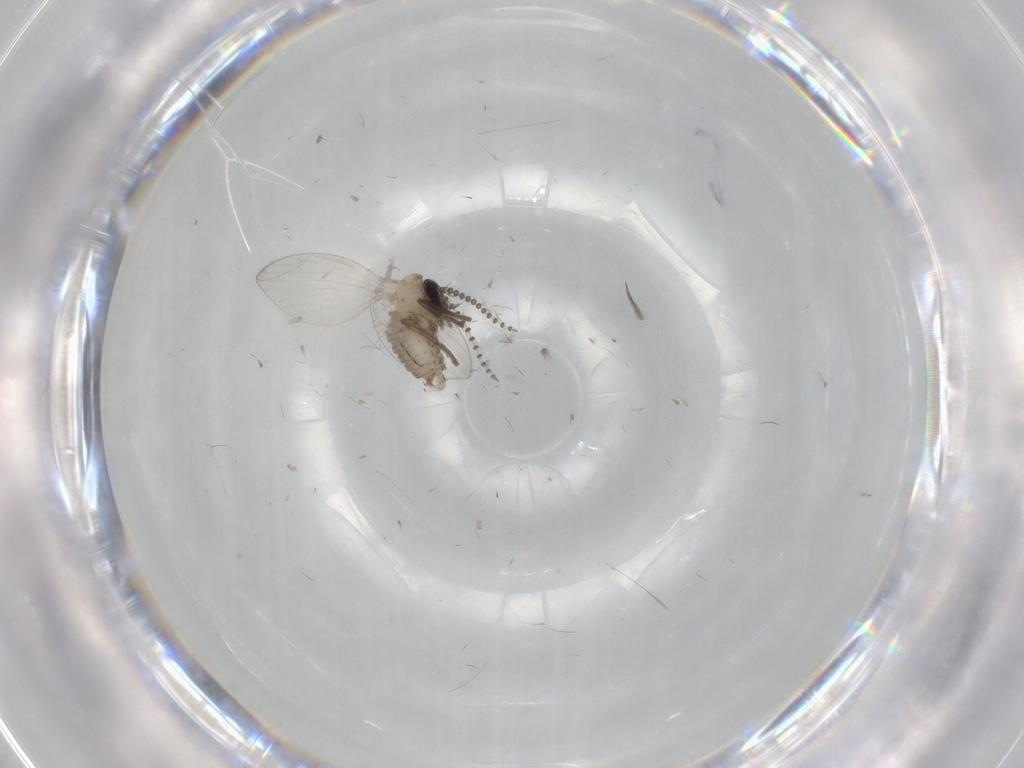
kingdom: Animalia
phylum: Arthropoda
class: Insecta
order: Diptera
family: Psychodidae
